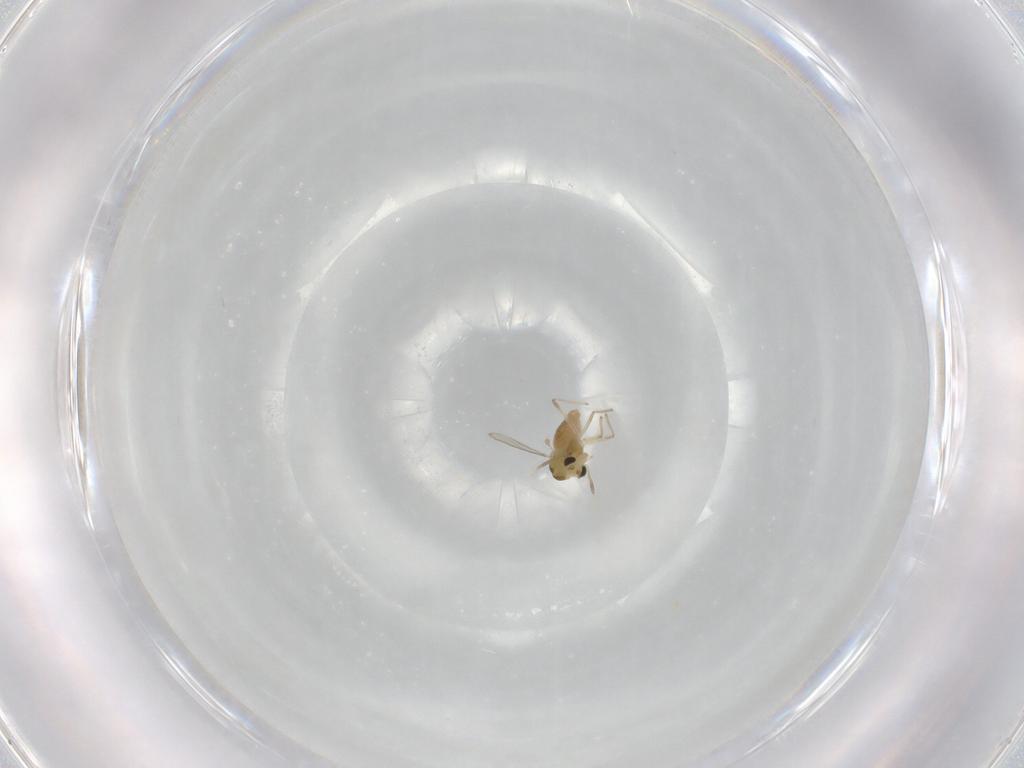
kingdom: Animalia
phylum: Arthropoda
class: Insecta
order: Diptera
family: Chironomidae
